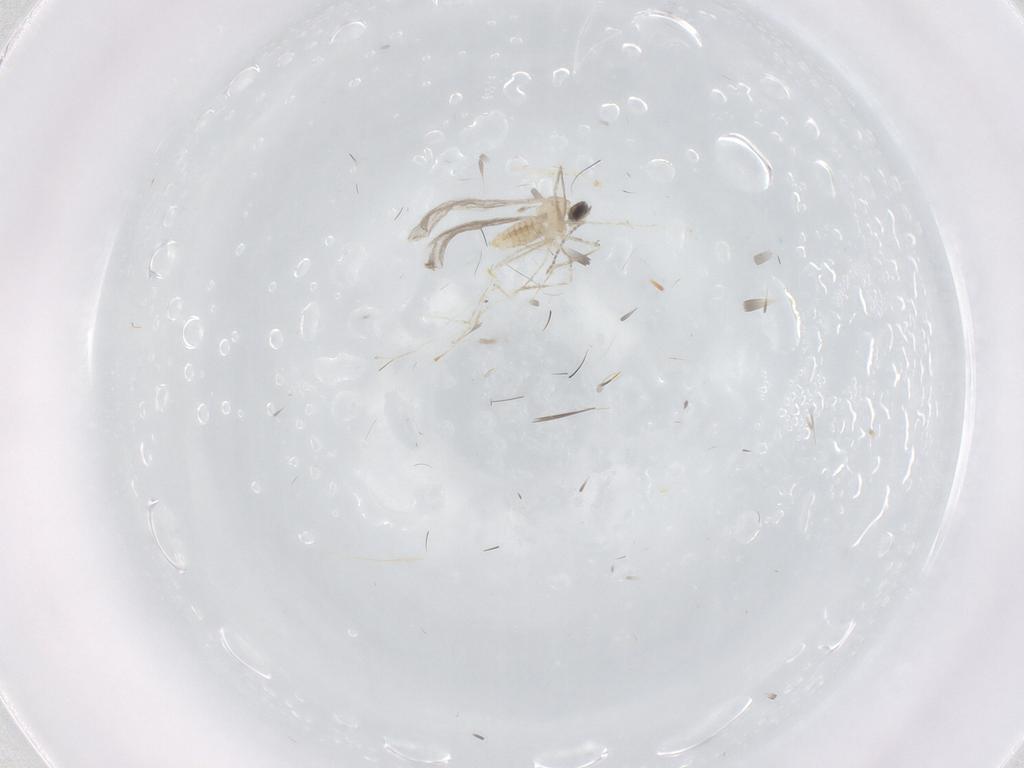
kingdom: Animalia
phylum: Arthropoda
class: Insecta
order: Diptera
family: Cecidomyiidae
